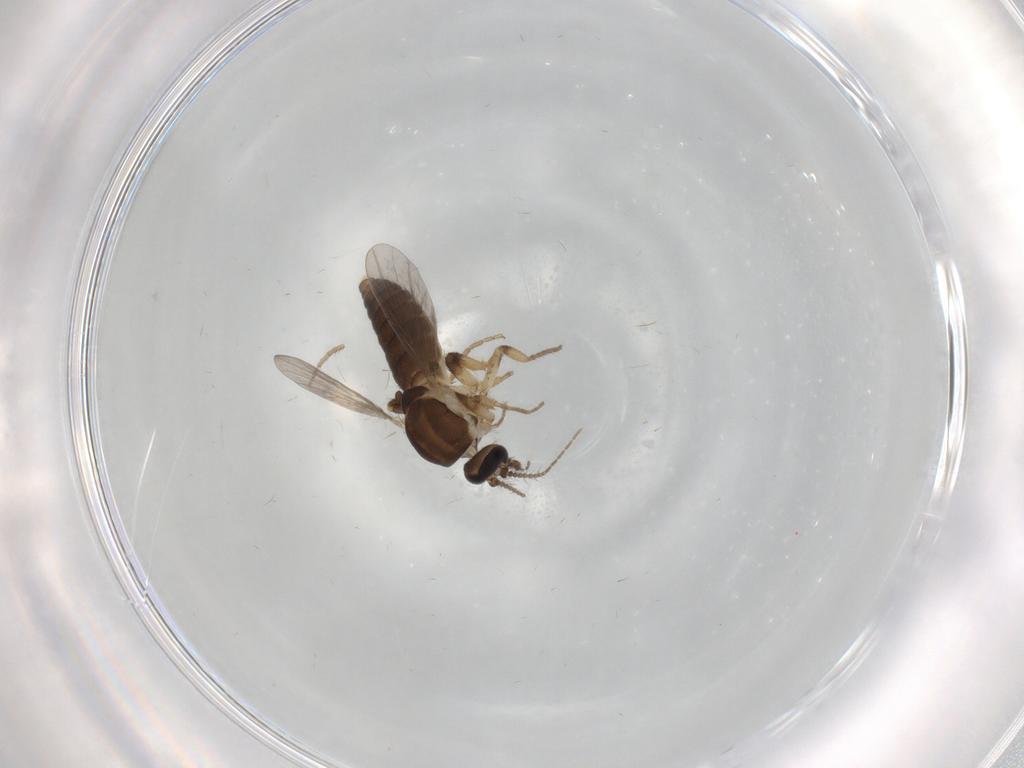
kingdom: Animalia
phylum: Arthropoda
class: Insecta
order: Diptera
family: Ceratopogonidae
